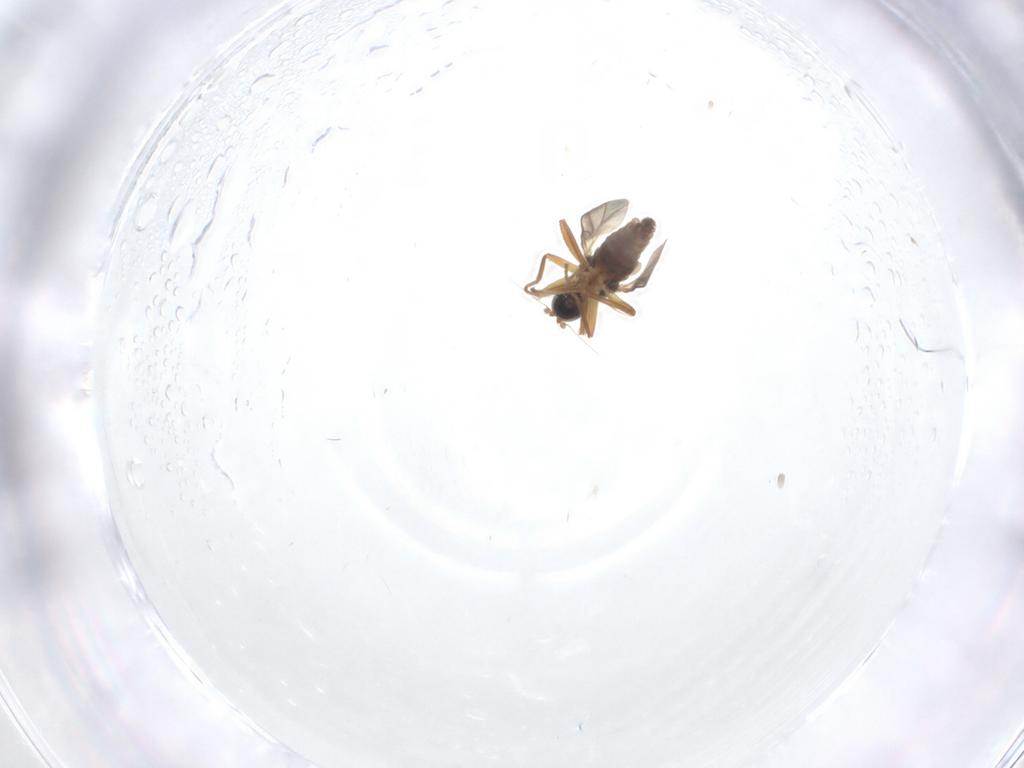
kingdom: Animalia
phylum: Arthropoda
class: Insecta
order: Diptera
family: Hybotidae
